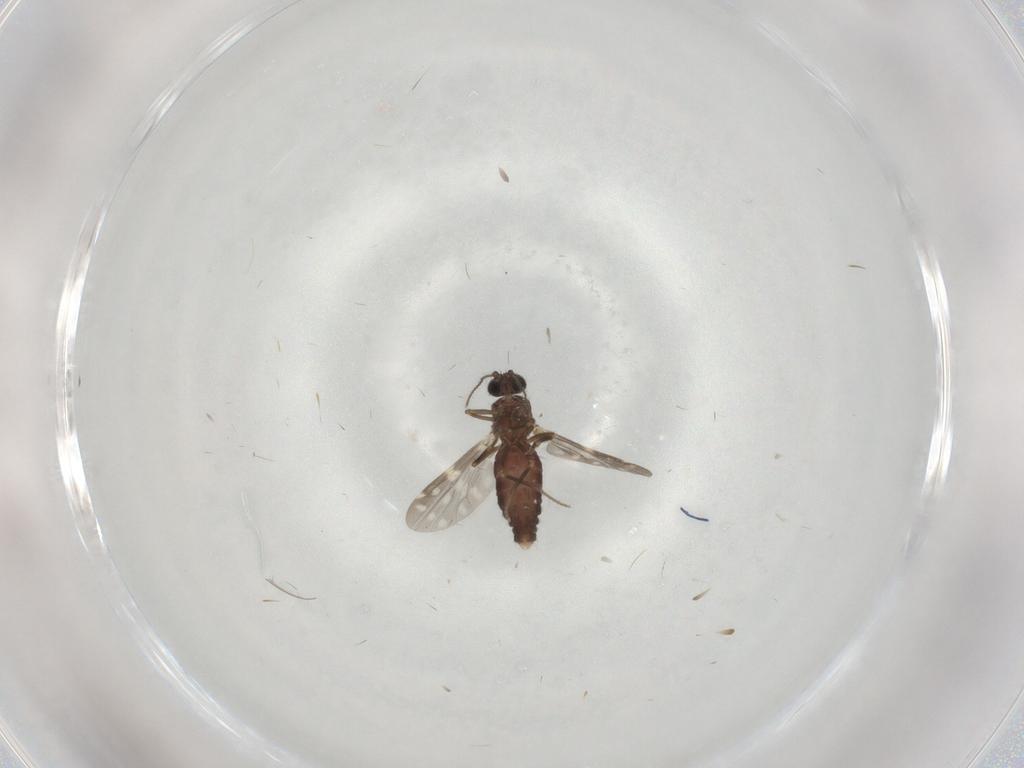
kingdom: Animalia
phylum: Arthropoda
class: Insecta
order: Diptera
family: Ceratopogonidae
